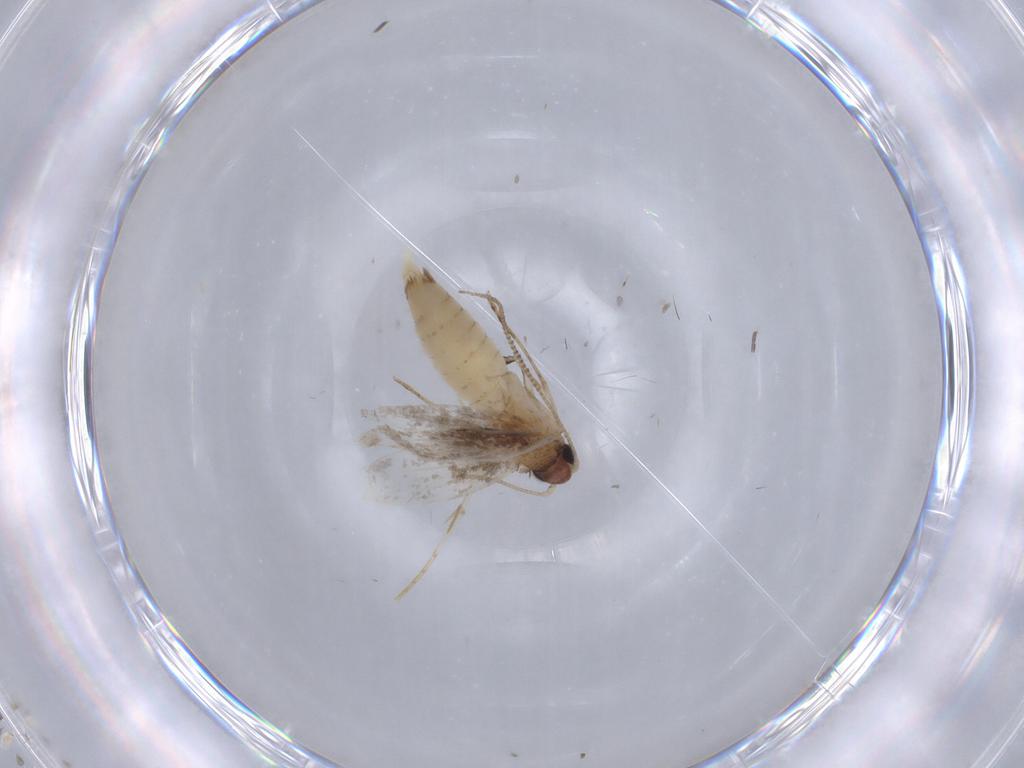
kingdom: Animalia
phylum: Arthropoda
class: Insecta
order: Lepidoptera
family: Tineidae
